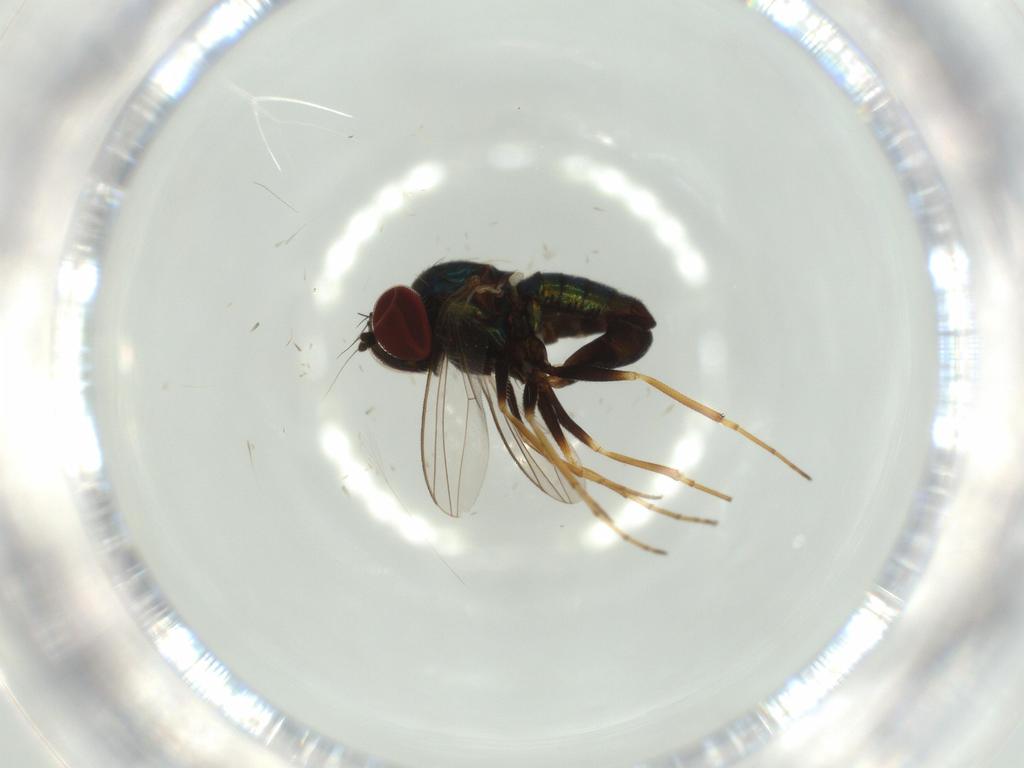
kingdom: Animalia
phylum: Arthropoda
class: Insecta
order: Diptera
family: Dolichopodidae
